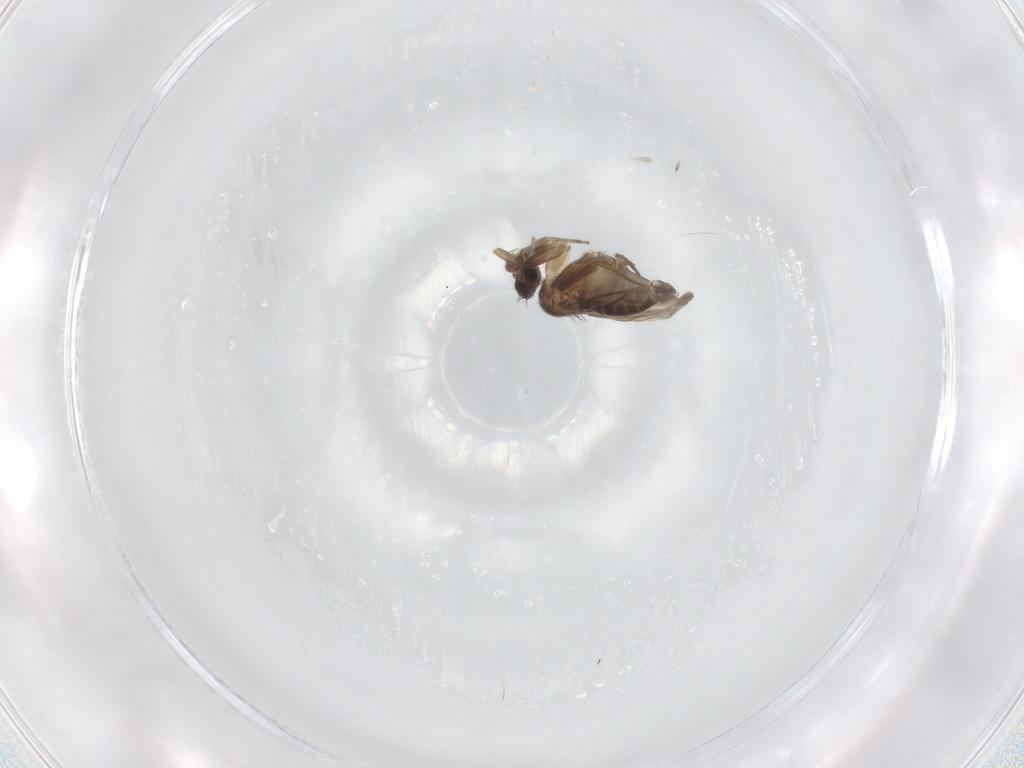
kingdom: Animalia
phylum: Arthropoda
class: Insecta
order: Diptera
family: Phoridae
